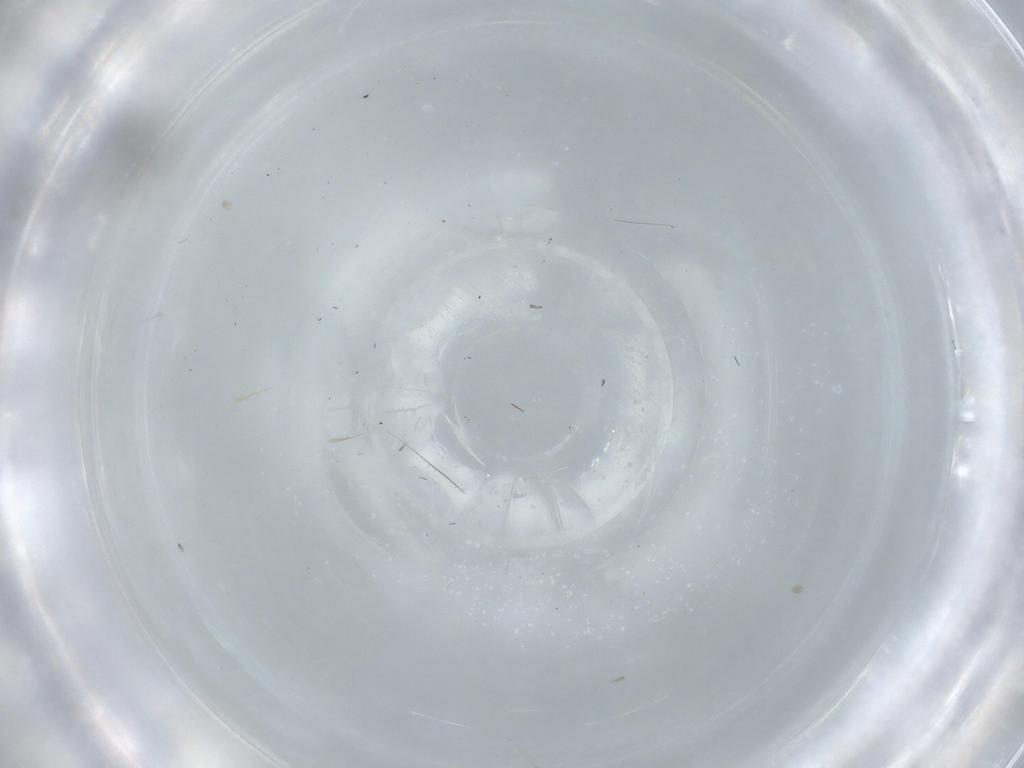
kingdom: Animalia
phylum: Arthropoda
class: Insecta
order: Diptera
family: Cecidomyiidae
